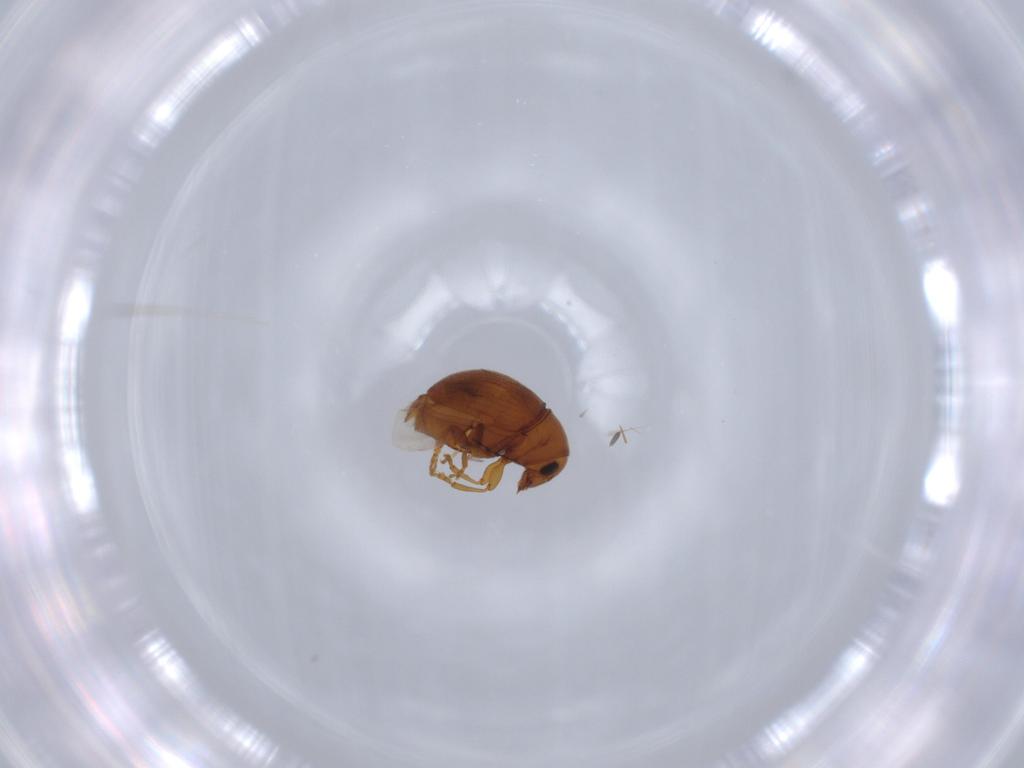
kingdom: Animalia
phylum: Arthropoda
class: Insecta
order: Coleoptera
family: Anthribidae
